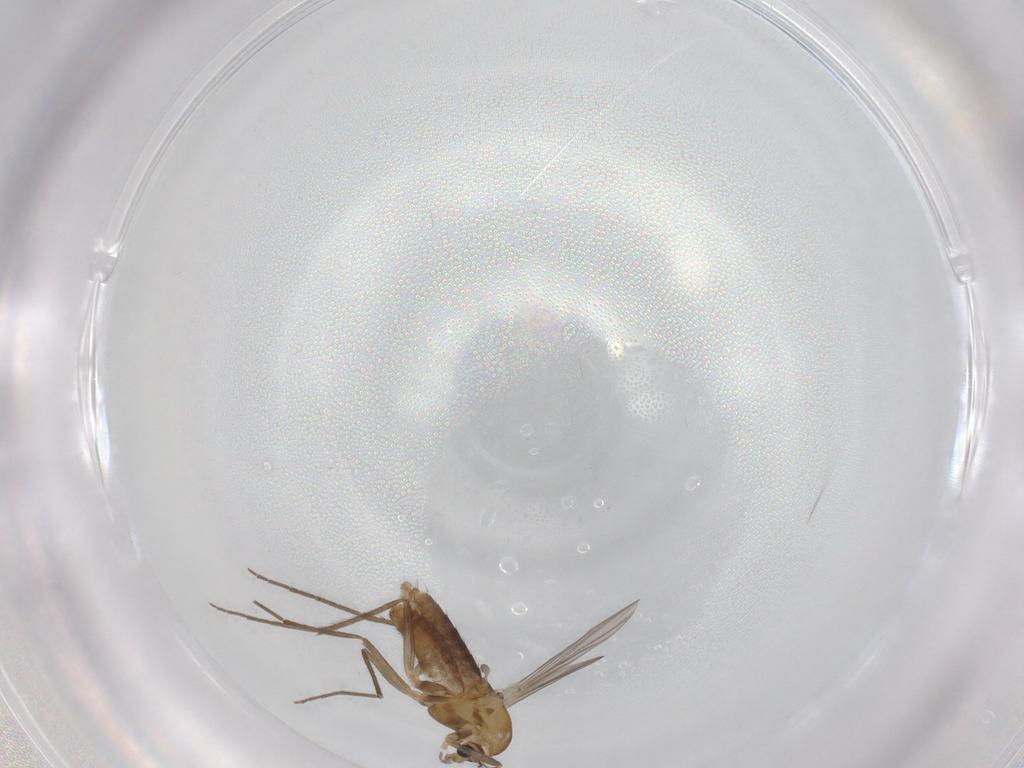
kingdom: Animalia
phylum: Arthropoda
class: Insecta
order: Diptera
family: Chironomidae
